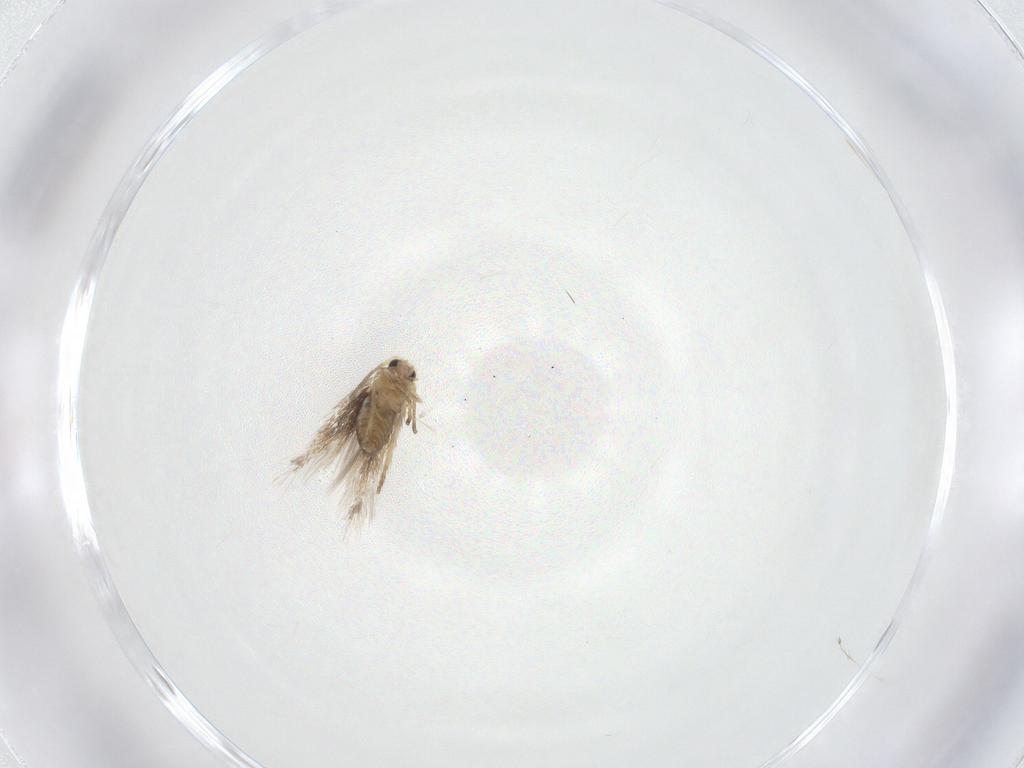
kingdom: Animalia
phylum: Arthropoda
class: Insecta
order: Lepidoptera
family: Nepticulidae
